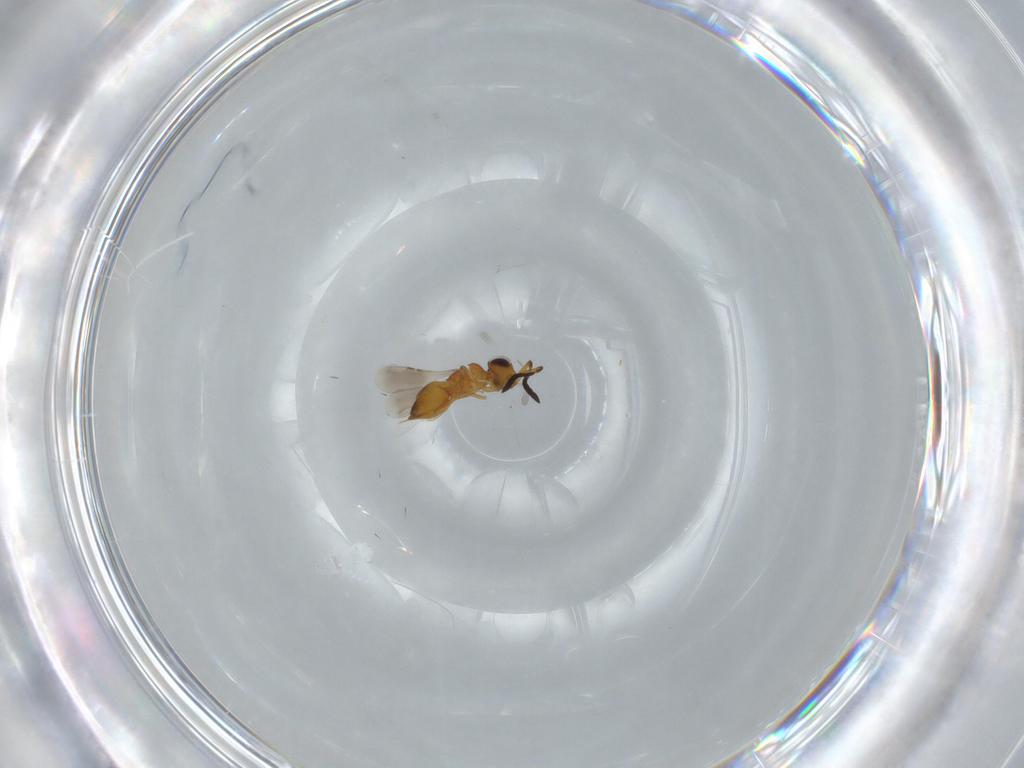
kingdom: Animalia
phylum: Arthropoda
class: Insecta
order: Hymenoptera
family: Ceraphronidae
